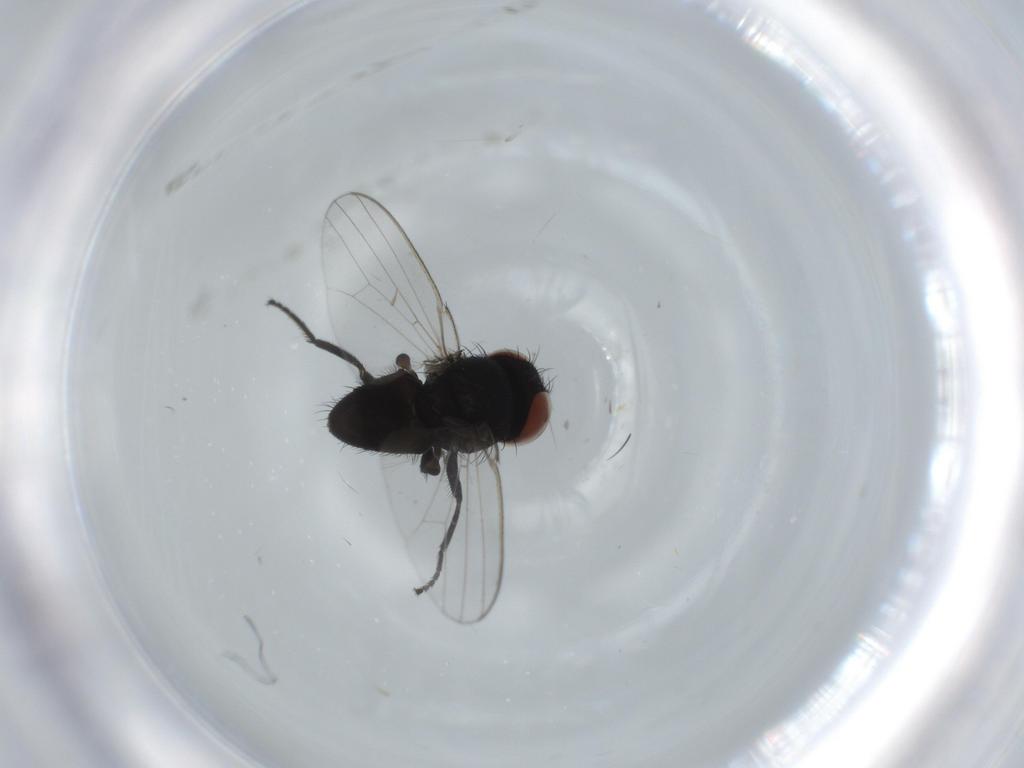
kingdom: Animalia
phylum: Arthropoda
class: Insecta
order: Diptera
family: Milichiidae
